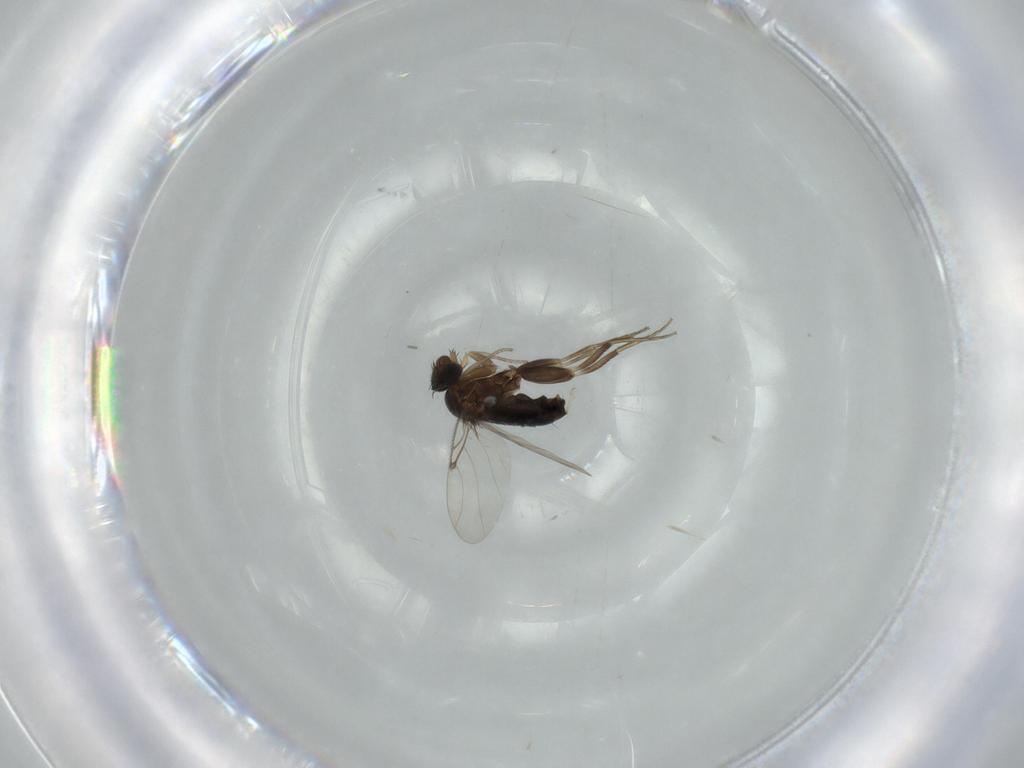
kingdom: Animalia
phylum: Arthropoda
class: Insecta
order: Diptera
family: Phoridae
